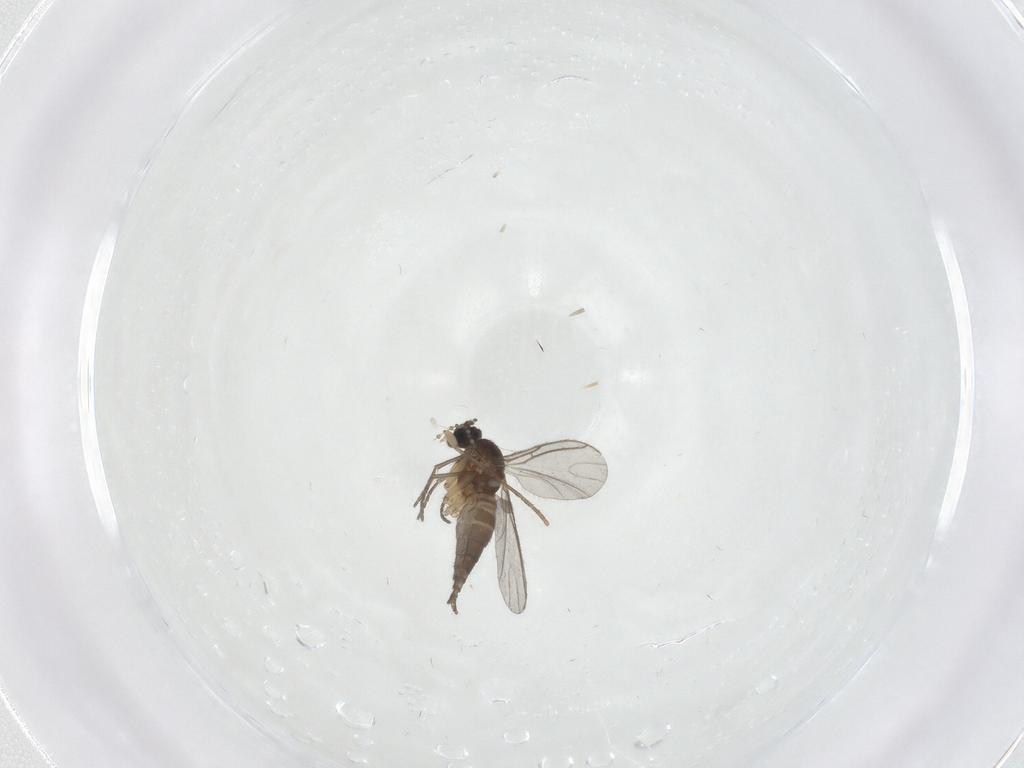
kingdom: Animalia
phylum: Arthropoda
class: Insecta
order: Diptera
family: Sciaridae
